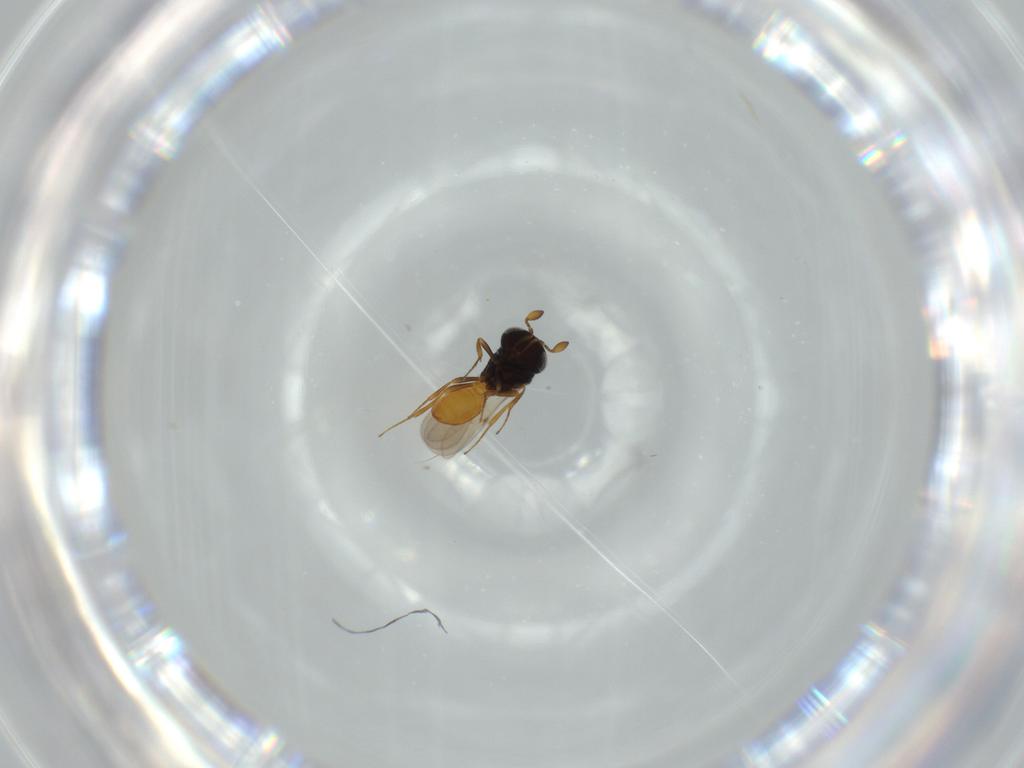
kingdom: Animalia
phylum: Arthropoda
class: Insecta
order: Hymenoptera
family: Scelionidae
